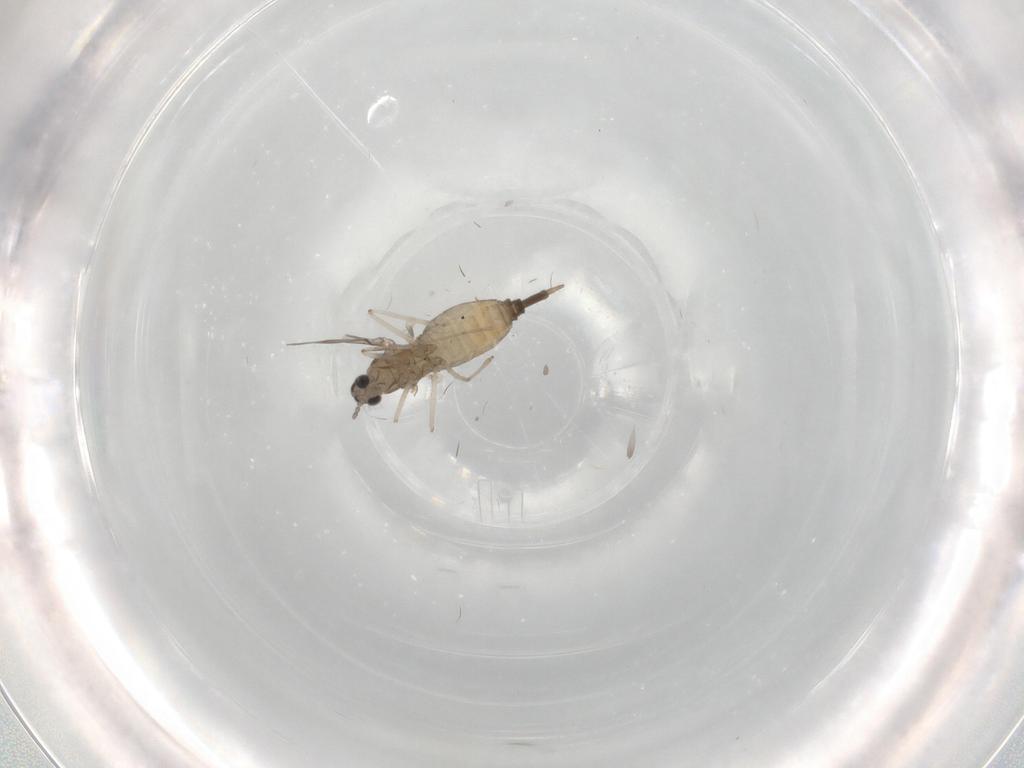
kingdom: Animalia
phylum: Arthropoda
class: Insecta
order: Diptera
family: Cecidomyiidae
